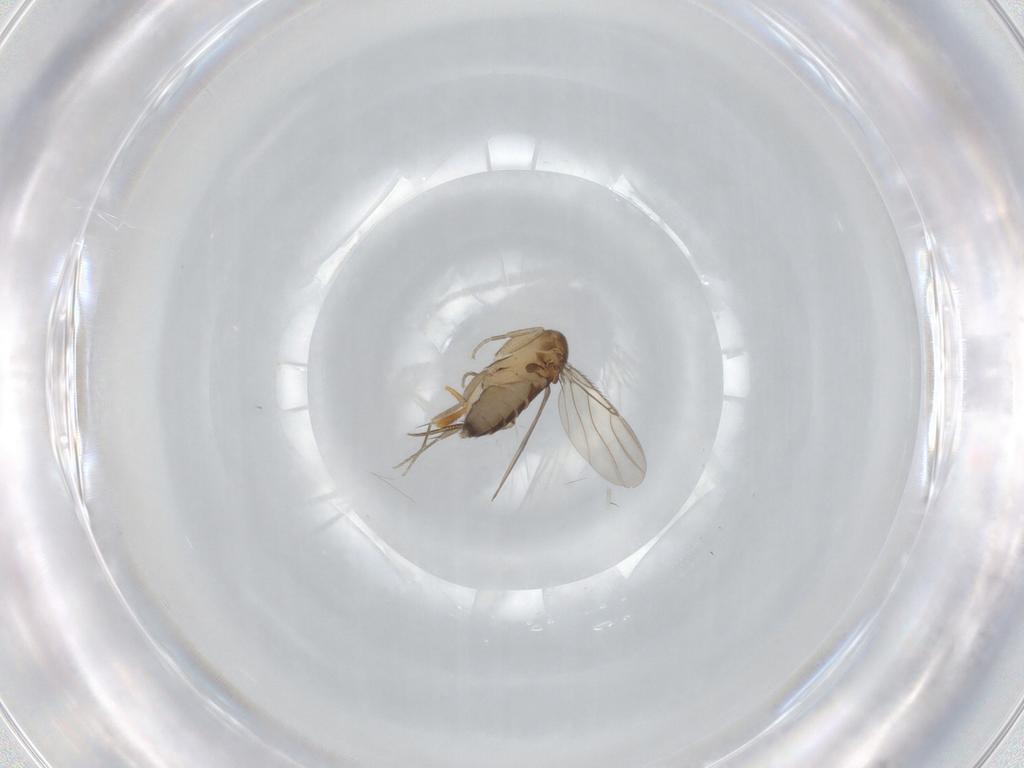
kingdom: Animalia
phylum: Arthropoda
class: Insecta
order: Diptera
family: Phoridae
